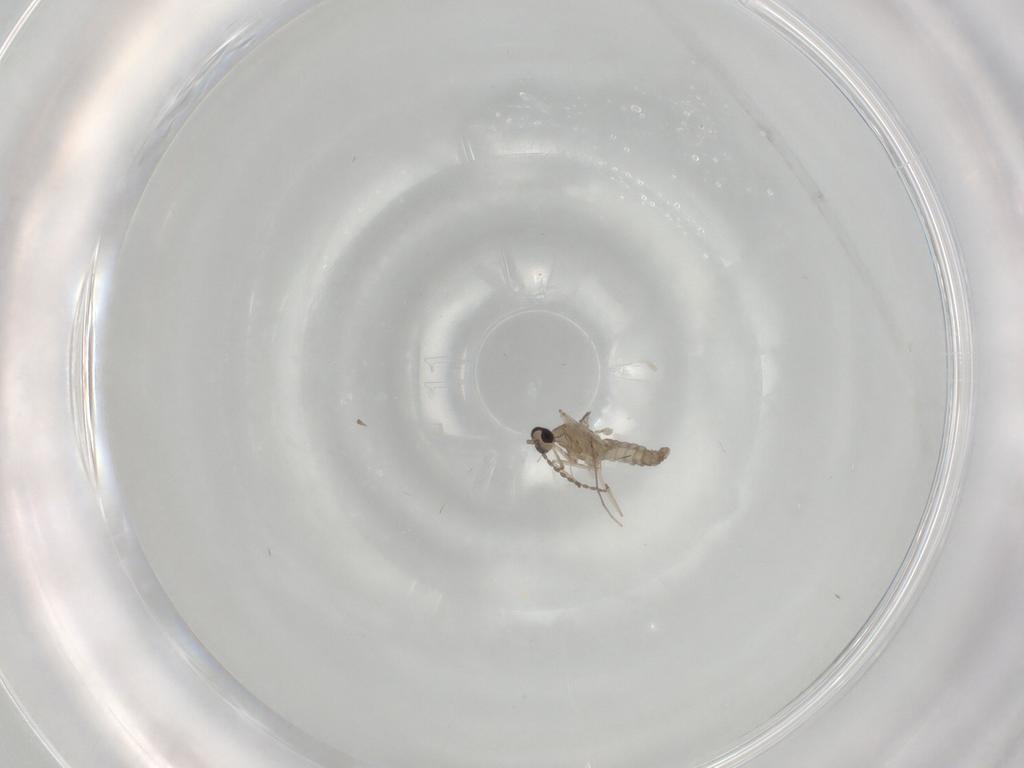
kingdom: Animalia
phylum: Arthropoda
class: Insecta
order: Diptera
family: Cecidomyiidae
